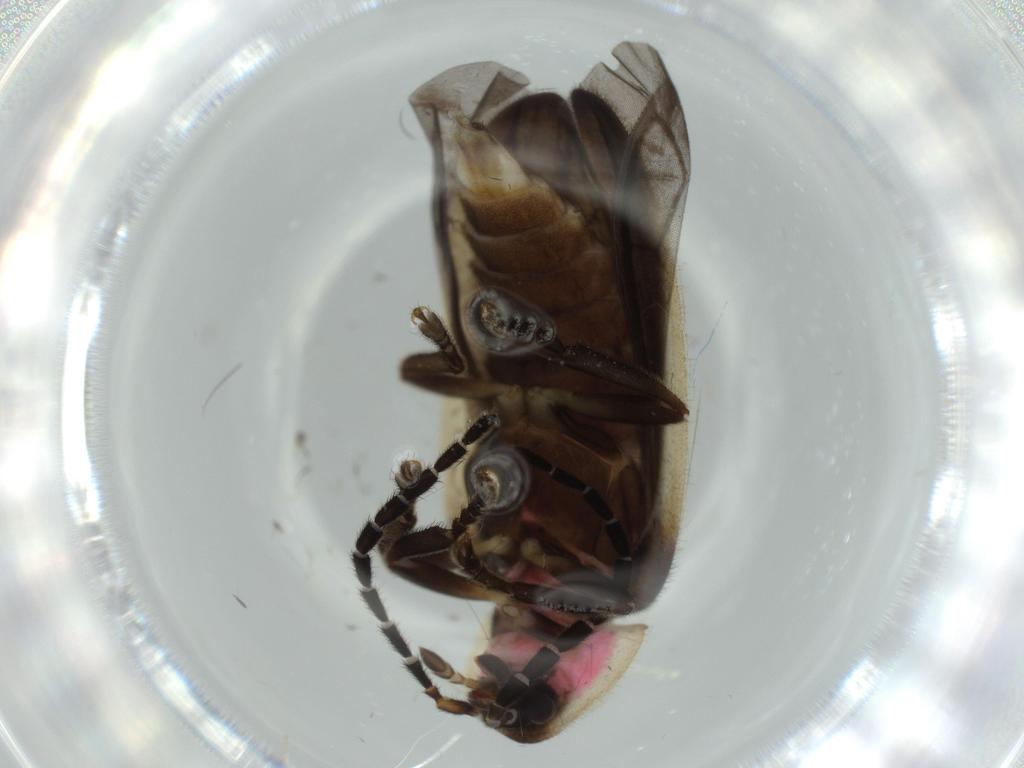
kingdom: Animalia
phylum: Arthropoda
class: Insecta
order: Coleoptera
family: Lampyridae
